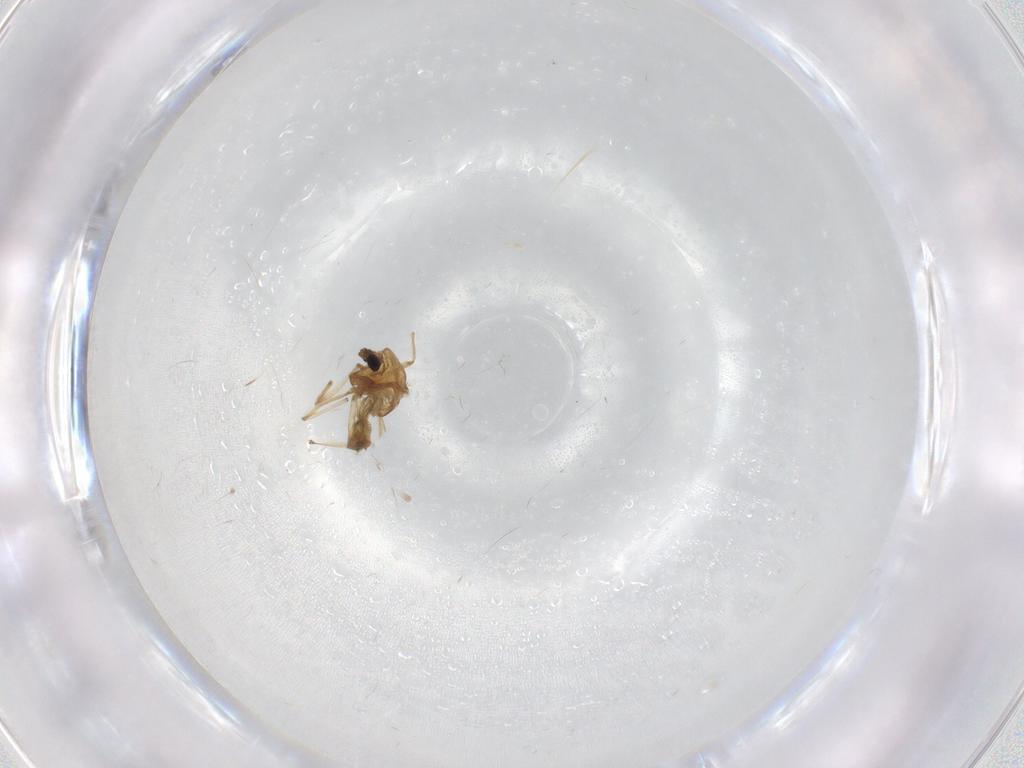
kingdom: Animalia
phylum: Arthropoda
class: Insecta
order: Diptera
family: Chironomidae
